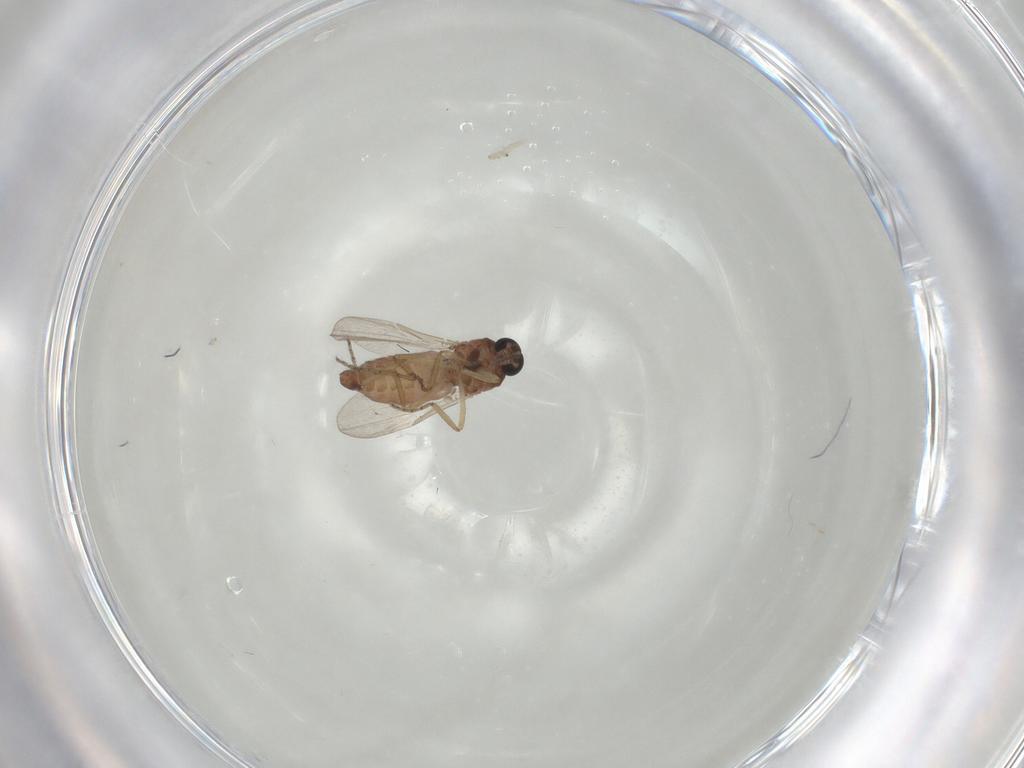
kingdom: Animalia
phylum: Arthropoda
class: Insecta
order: Diptera
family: Ceratopogonidae
